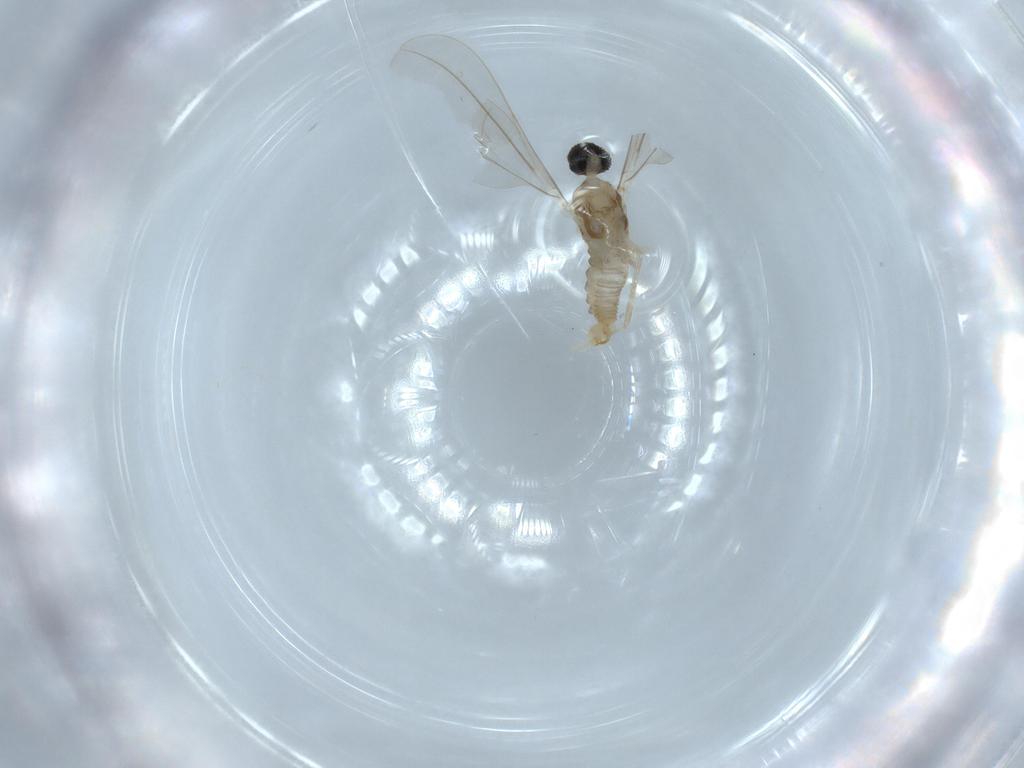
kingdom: Animalia
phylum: Arthropoda
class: Insecta
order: Diptera
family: Cecidomyiidae
